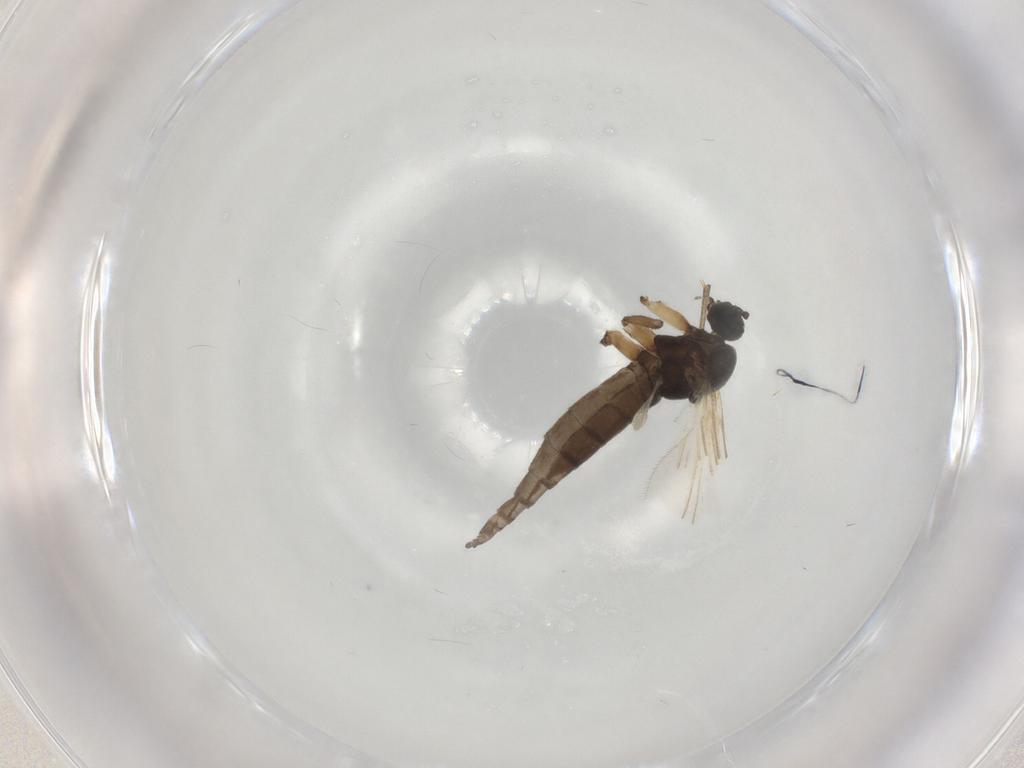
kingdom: Animalia
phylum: Arthropoda
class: Insecta
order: Diptera
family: Sciaridae
